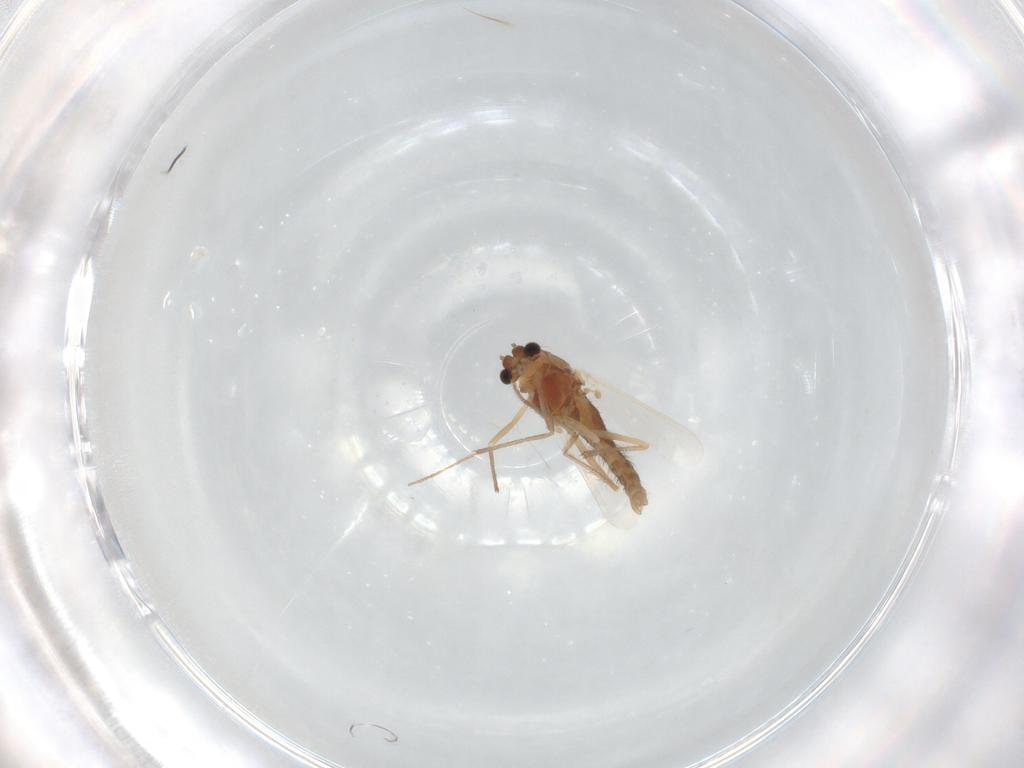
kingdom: Animalia
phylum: Arthropoda
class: Insecta
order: Diptera
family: Chironomidae
